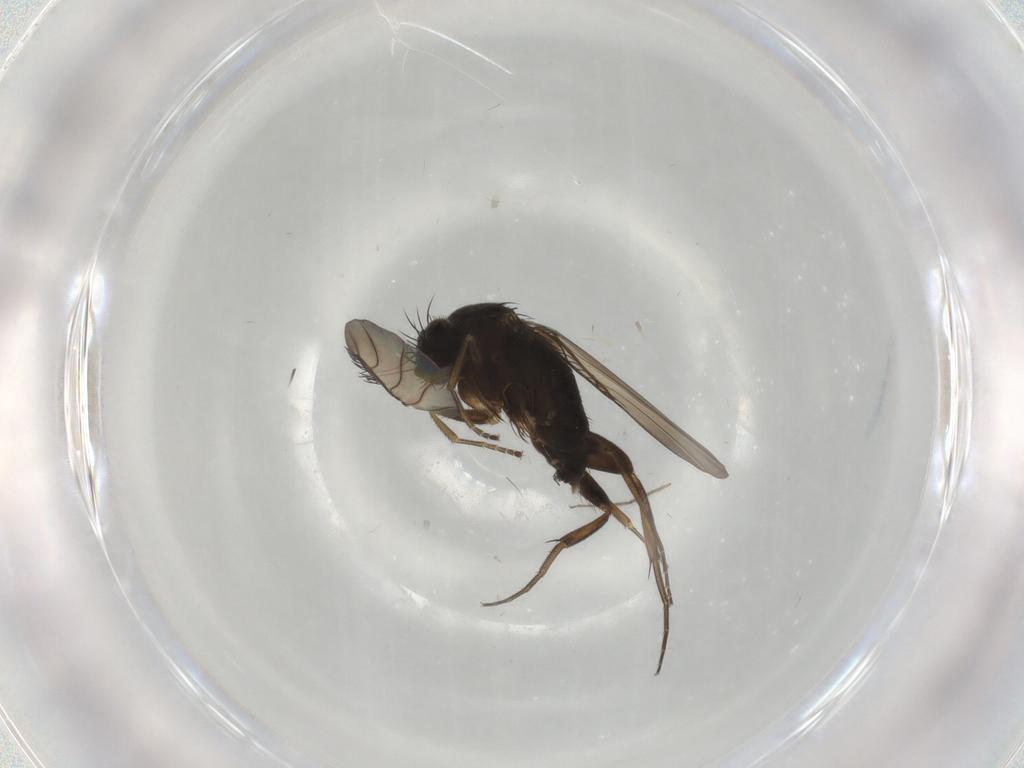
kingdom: Animalia
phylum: Arthropoda
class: Insecta
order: Diptera
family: Phoridae
